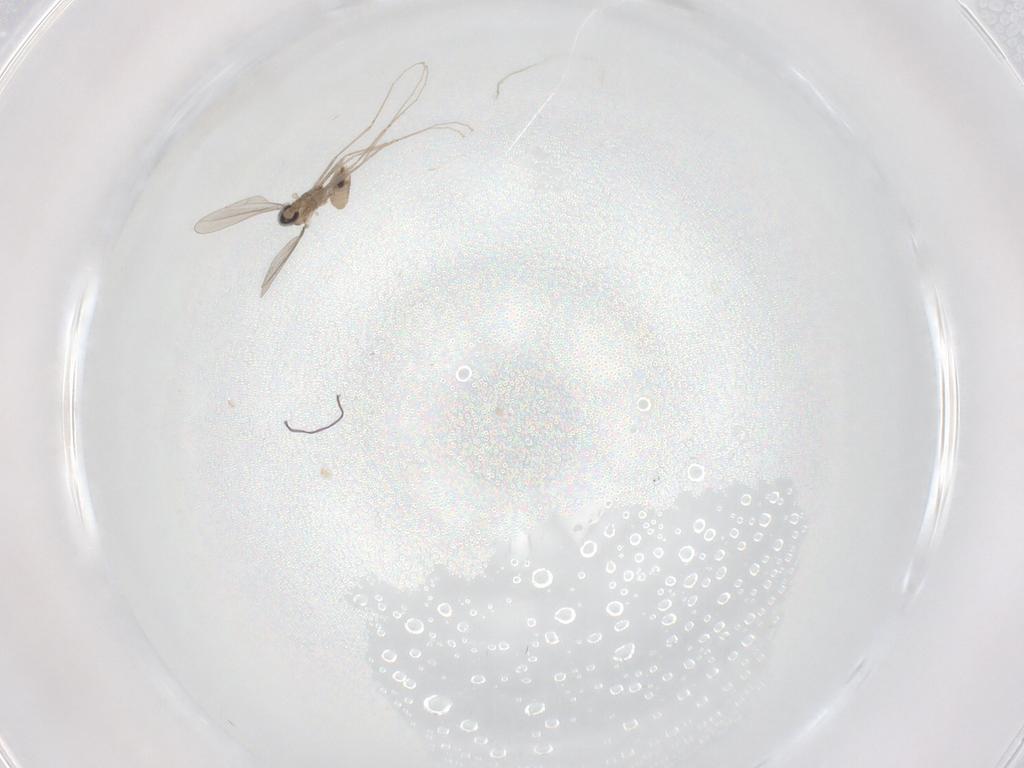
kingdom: Animalia
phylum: Arthropoda
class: Insecta
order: Diptera
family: Cecidomyiidae
